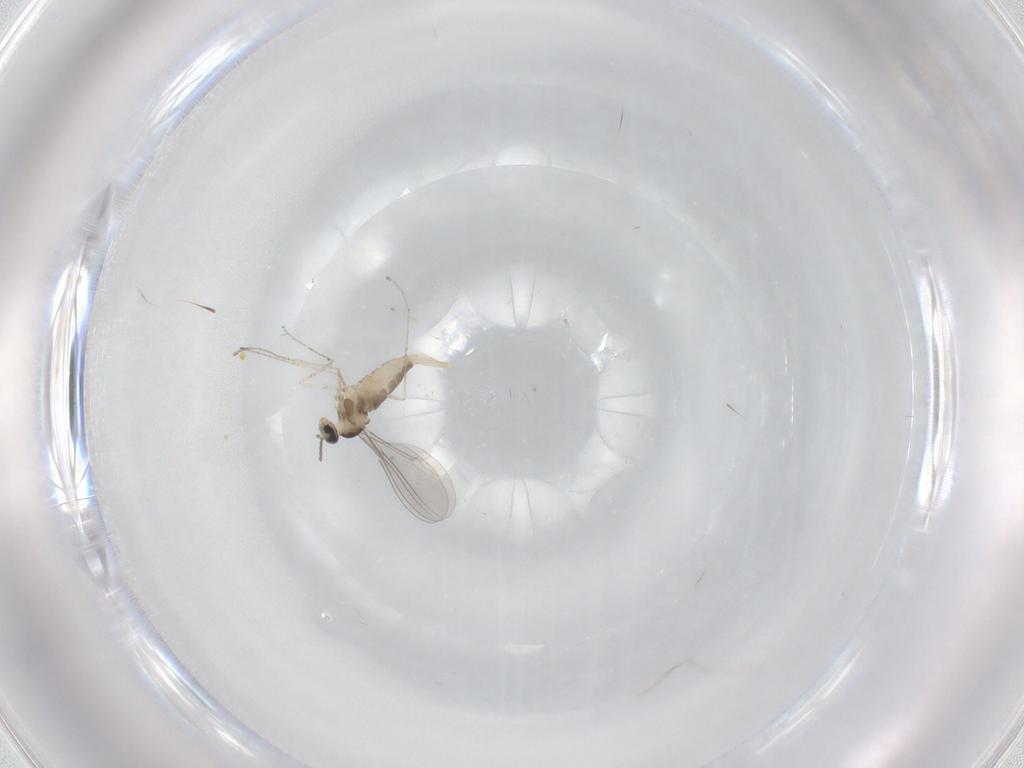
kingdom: Animalia
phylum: Arthropoda
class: Insecta
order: Diptera
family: Cecidomyiidae
